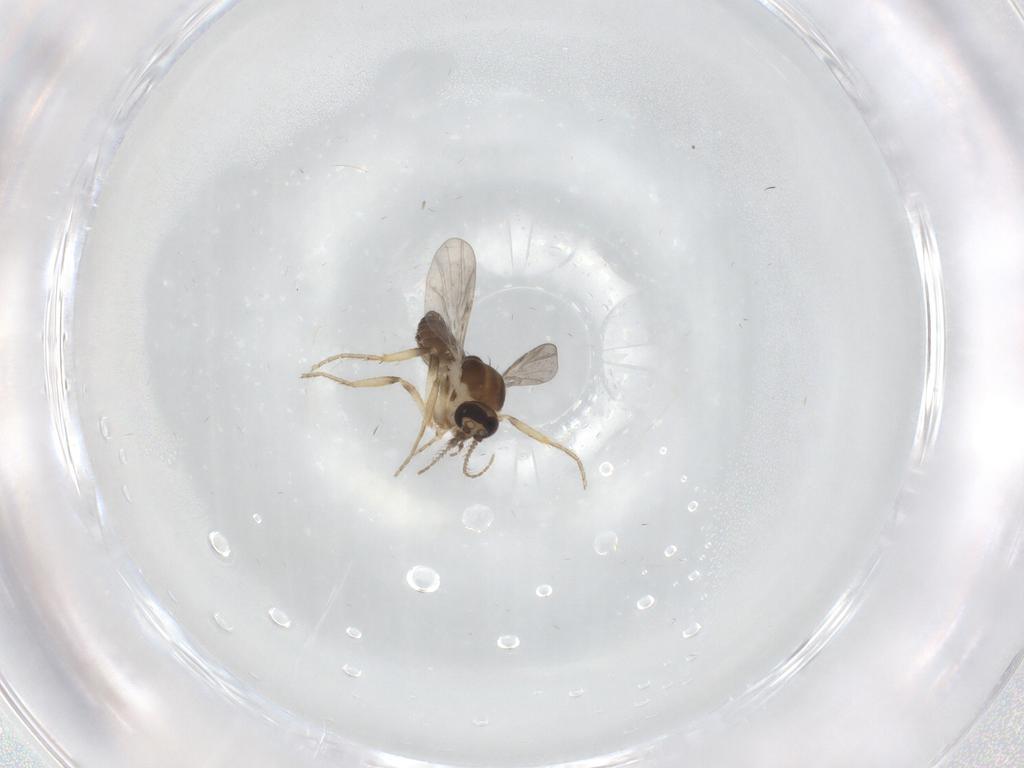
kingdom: Animalia
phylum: Arthropoda
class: Insecta
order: Diptera
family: Ceratopogonidae
